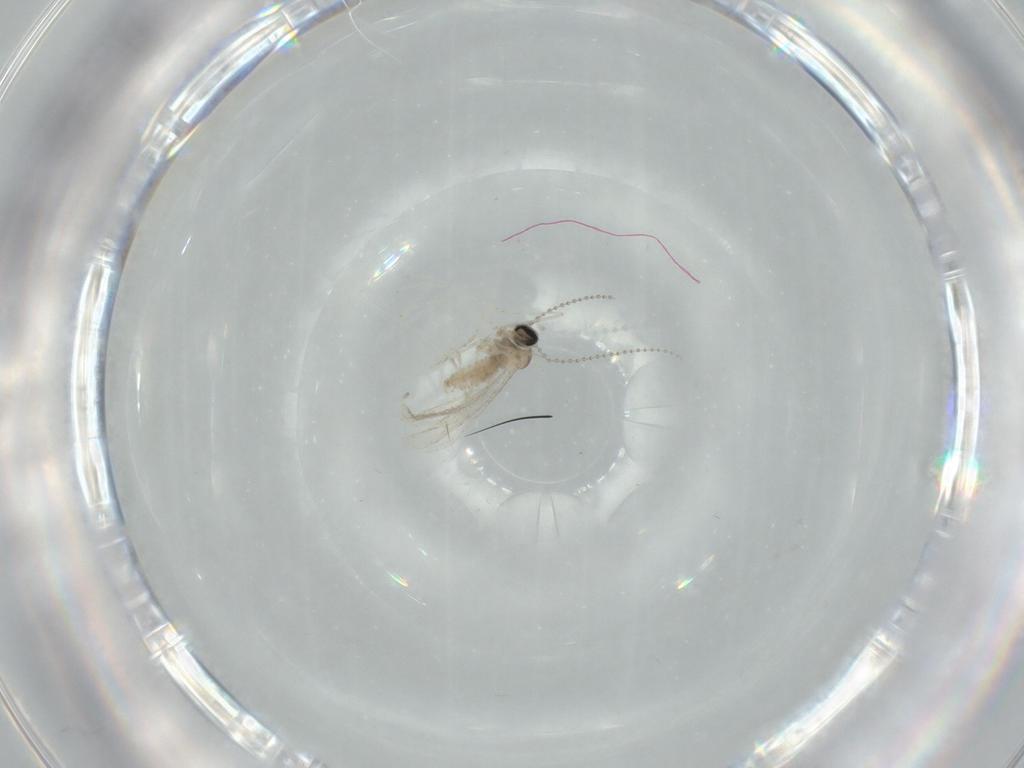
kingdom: Animalia
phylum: Arthropoda
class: Insecta
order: Diptera
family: Cecidomyiidae
